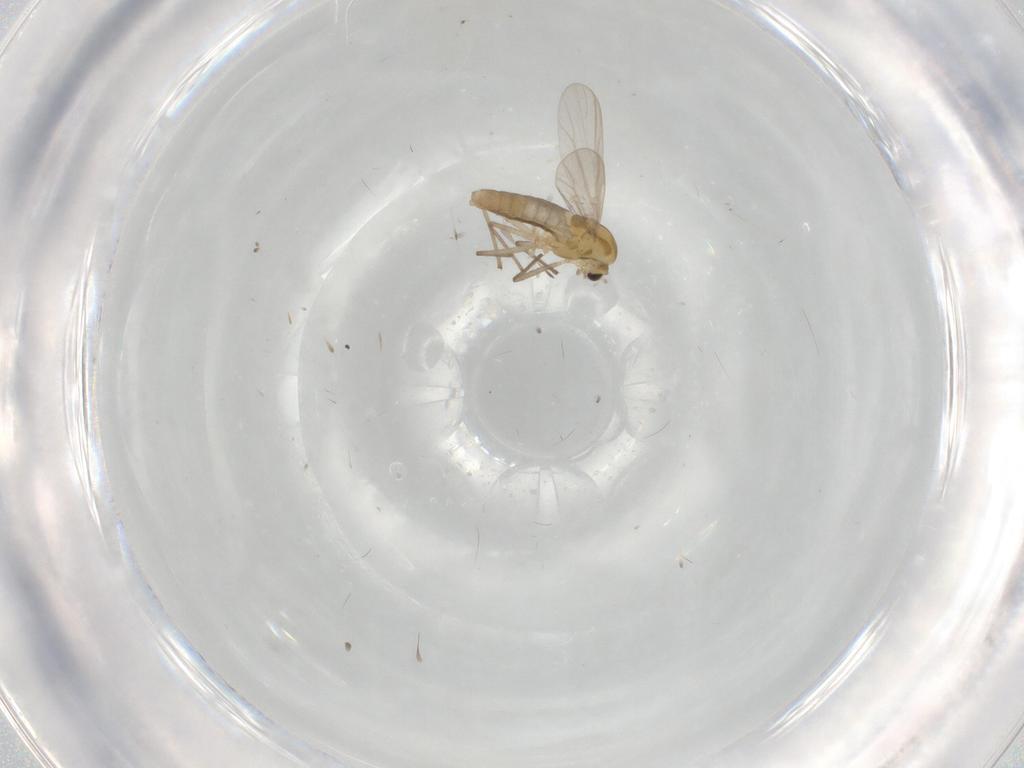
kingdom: Animalia
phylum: Arthropoda
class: Insecta
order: Diptera
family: Chironomidae
